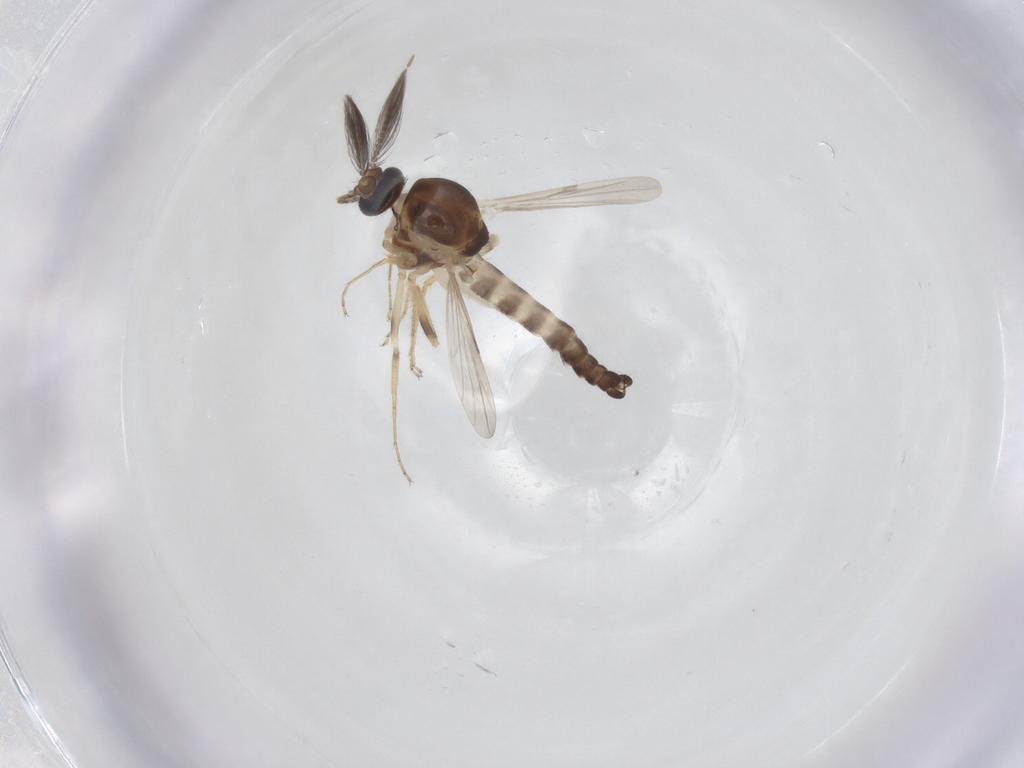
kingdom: Animalia
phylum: Arthropoda
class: Insecta
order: Diptera
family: Ceratopogonidae
